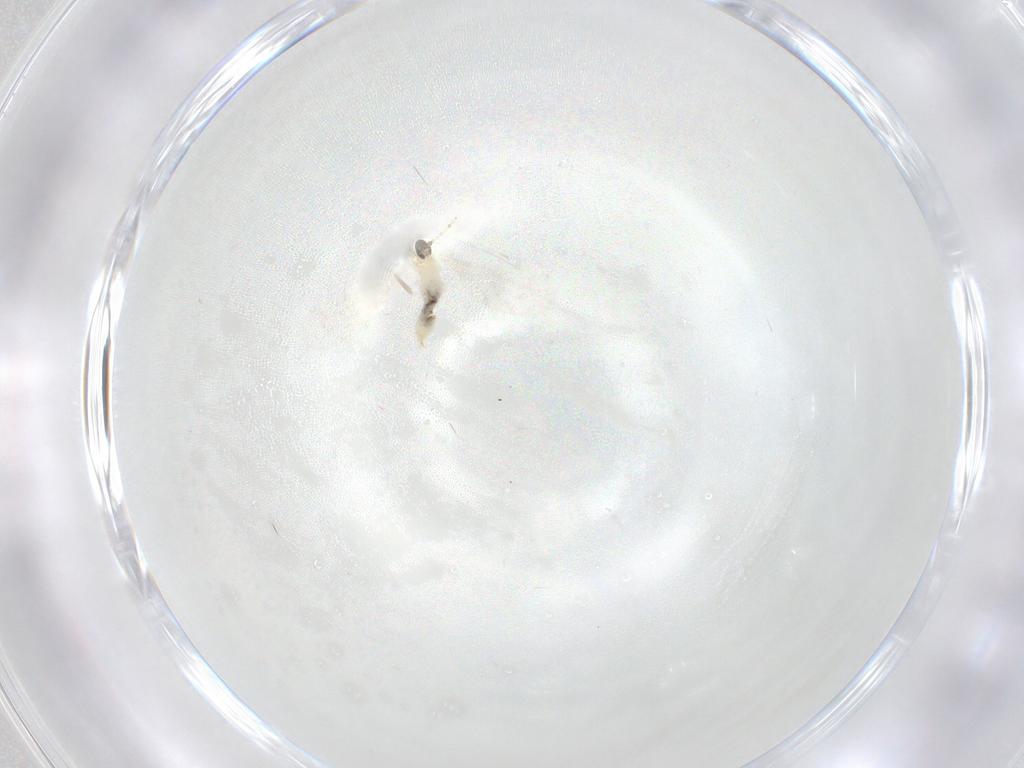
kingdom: Animalia
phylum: Arthropoda
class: Insecta
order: Diptera
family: Cecidomyiidae
